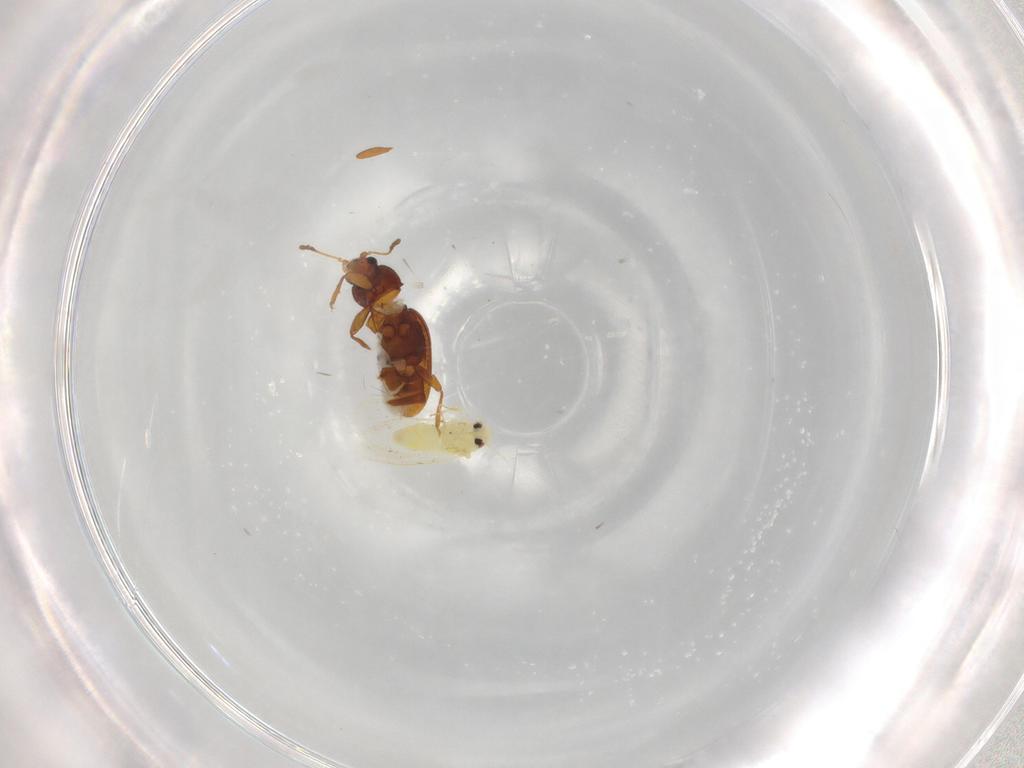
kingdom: Animalia
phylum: Arthropoda
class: Insecta
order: Coleoptera
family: Latridiidae
